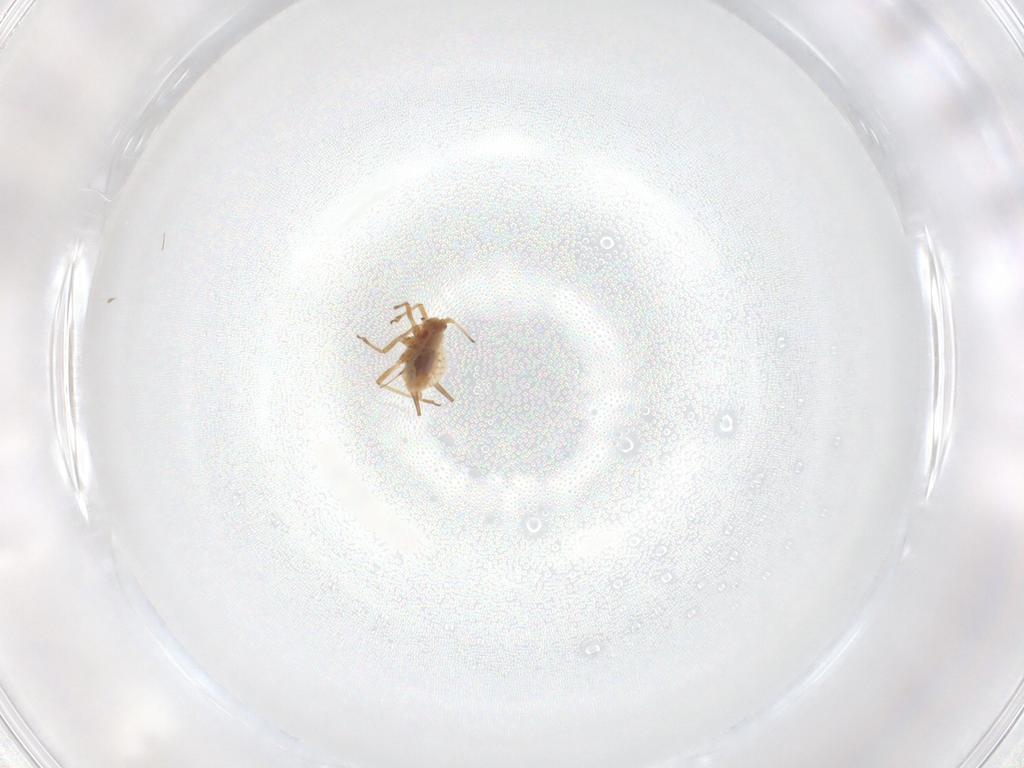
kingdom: Animalia
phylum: Arthropoda
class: Insecta
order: Hemiptera
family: Aphididae
